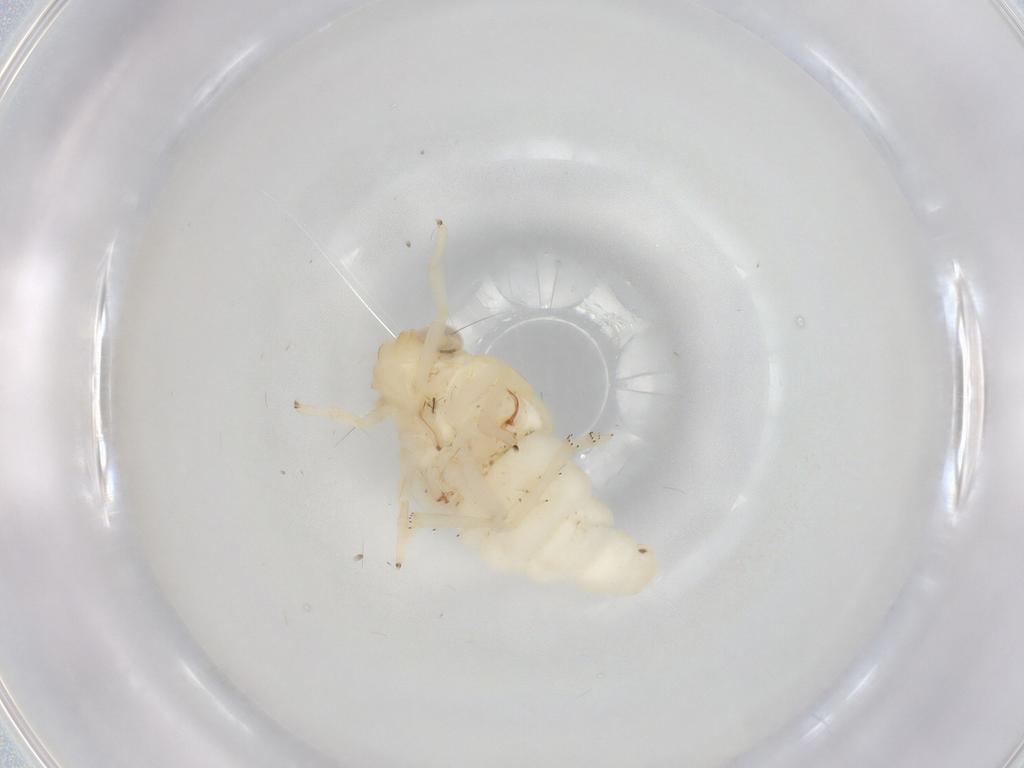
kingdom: Animalia
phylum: Arthropoda
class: Insecta
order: Hemiptera
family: Nogodinidae
